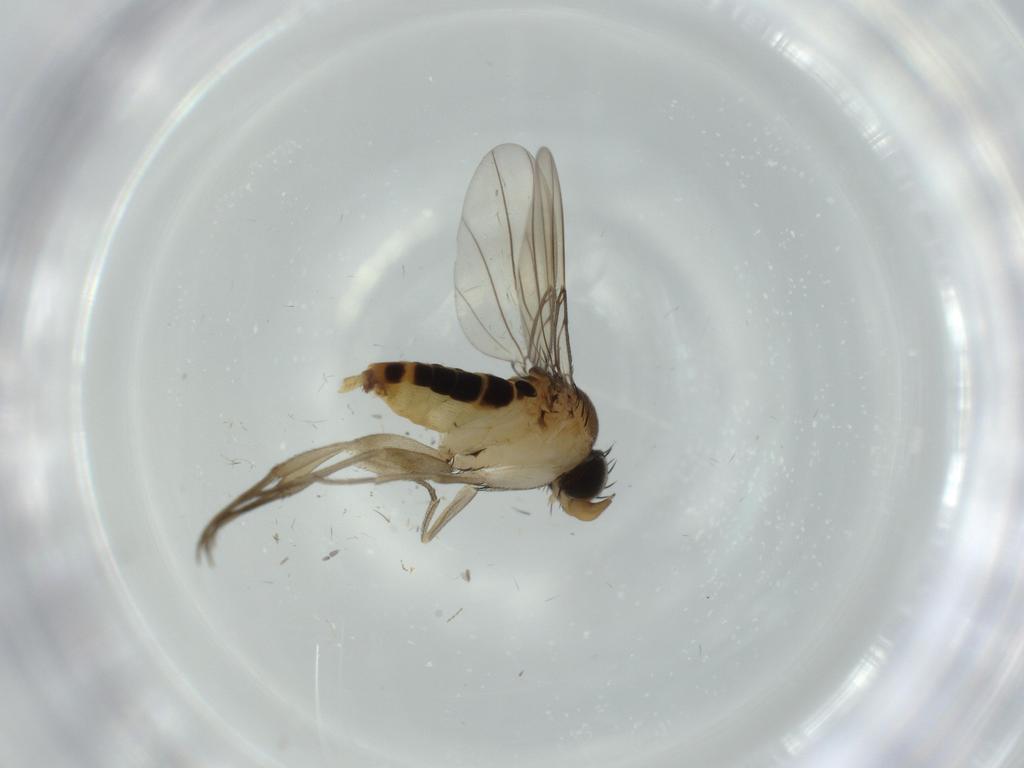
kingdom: Animalia
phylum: Arthropoda
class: Insecta
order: Diptera
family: Phoridae
